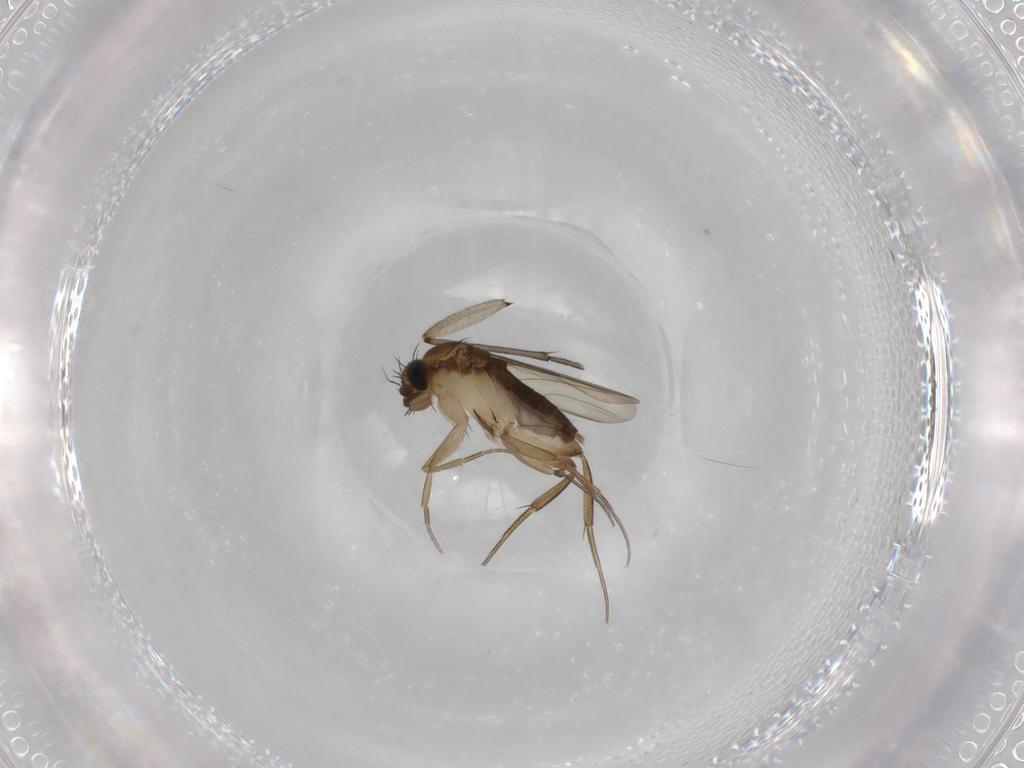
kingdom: Animalia
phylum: Arthropoda
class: Insecta
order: Diptera
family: Phoridae
